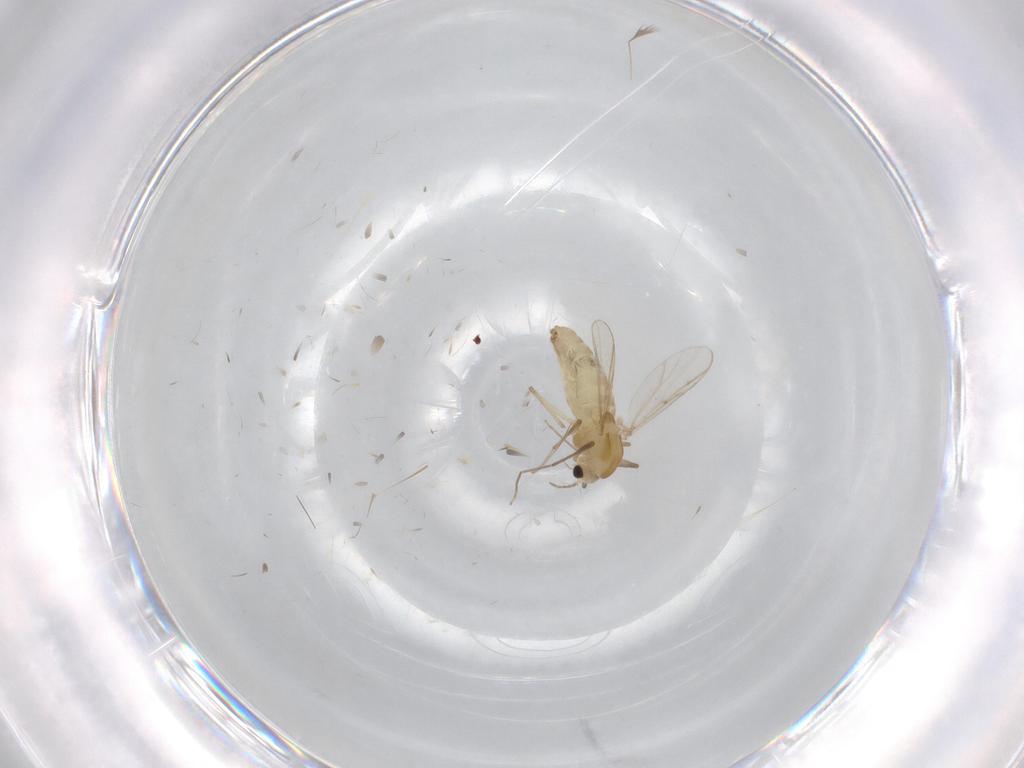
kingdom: Animalia
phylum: Arthropoda
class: Insecta
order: Diptera
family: Chironomidae
